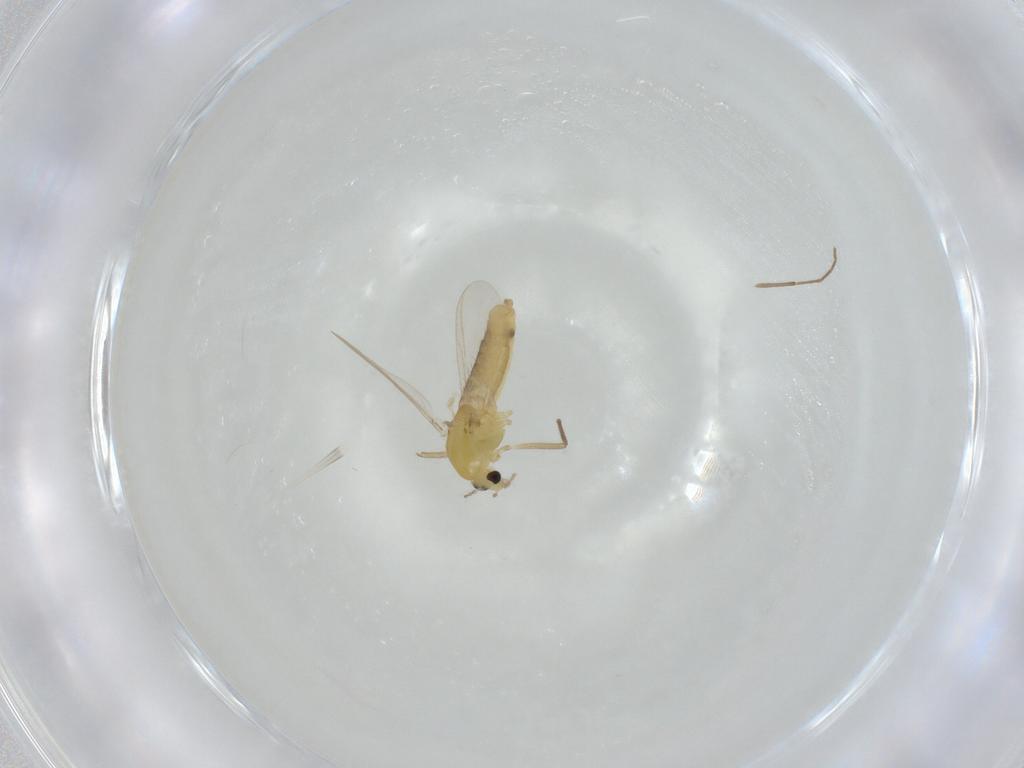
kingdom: Animalia
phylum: Arthropoda
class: Insecta
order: Diptera
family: Chironomidae
